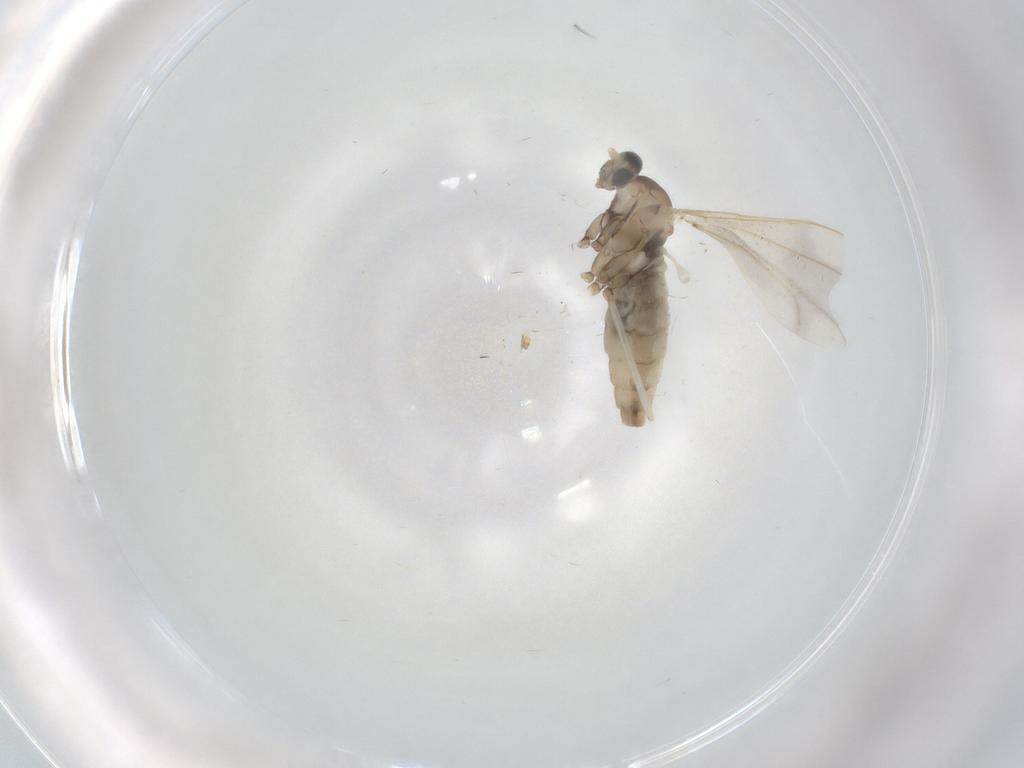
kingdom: Animalia
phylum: Arthropoda
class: Insecta
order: Diptera
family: Cecidomyiidae
